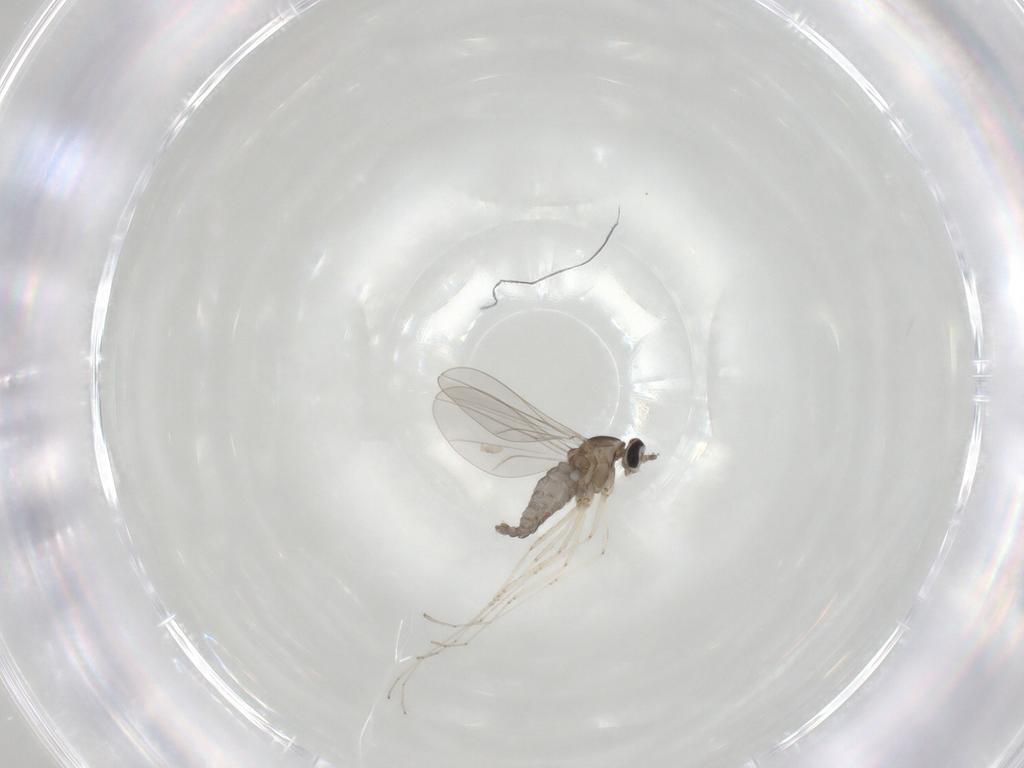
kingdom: Animalia
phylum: Arthropoda
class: Insecta
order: Diptera
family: Cecidomyiidae
